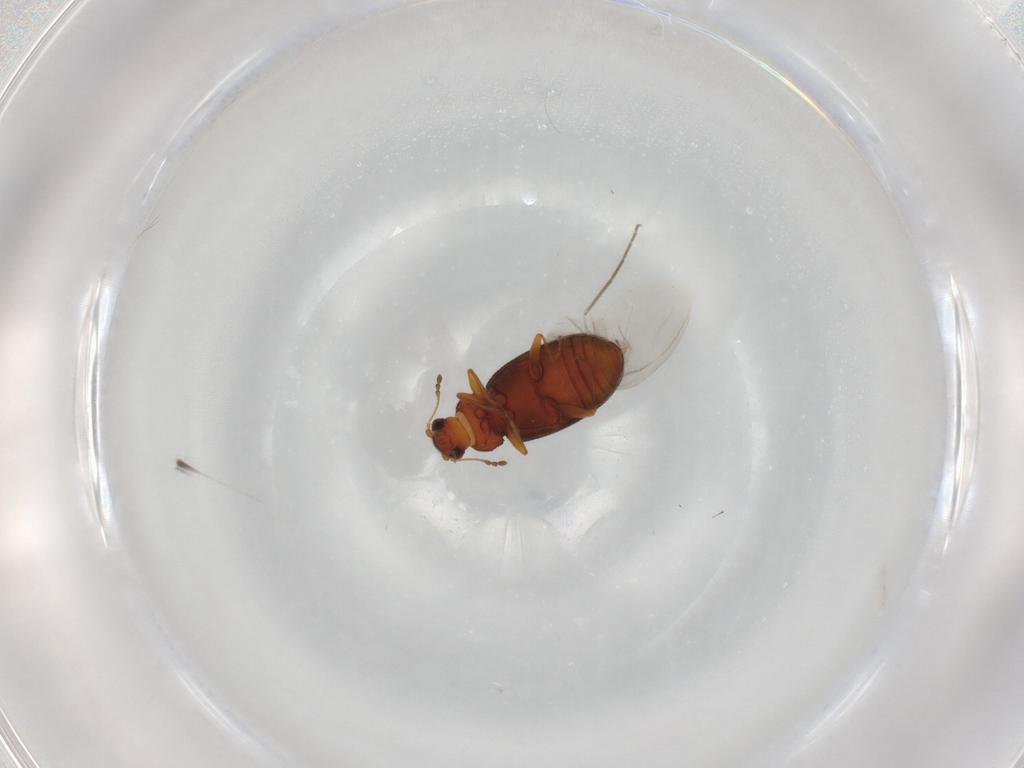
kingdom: Animalia
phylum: Arthropoda
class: Insecta
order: Coleoptera
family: Latridiidae
